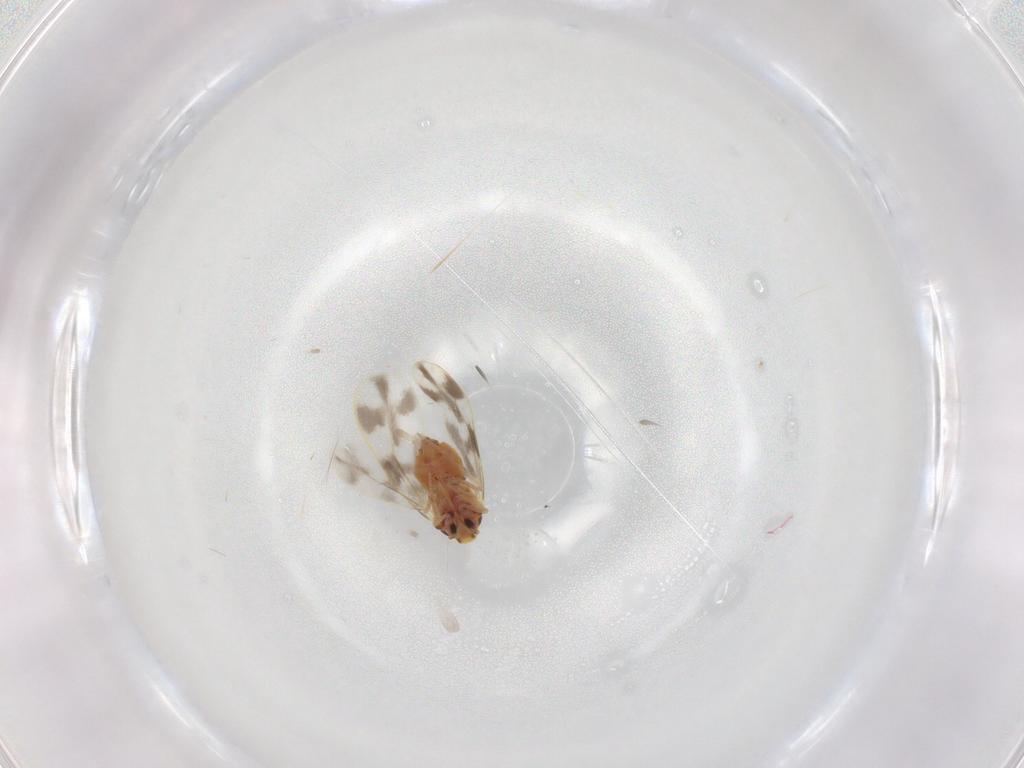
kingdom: Animalia
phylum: Arthropoda
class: Insecta
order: Hemiptera
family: Aleyrodidae
